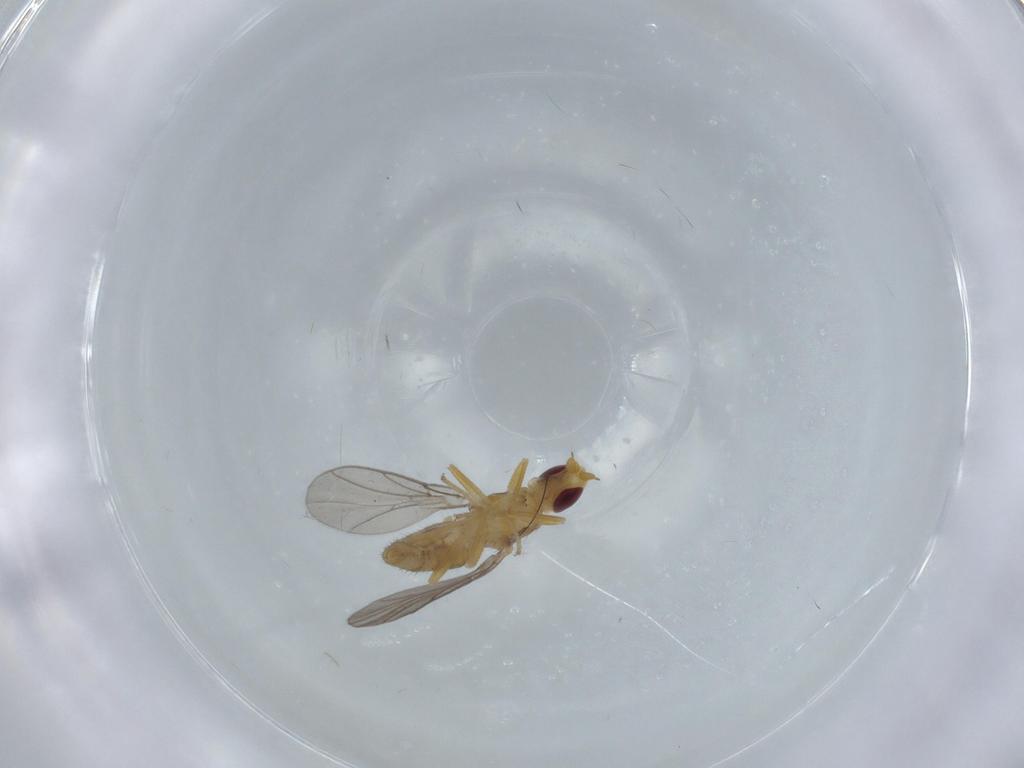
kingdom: Animalia
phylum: Arthropoda
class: Insecta
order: Diptera
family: Chloropidae
